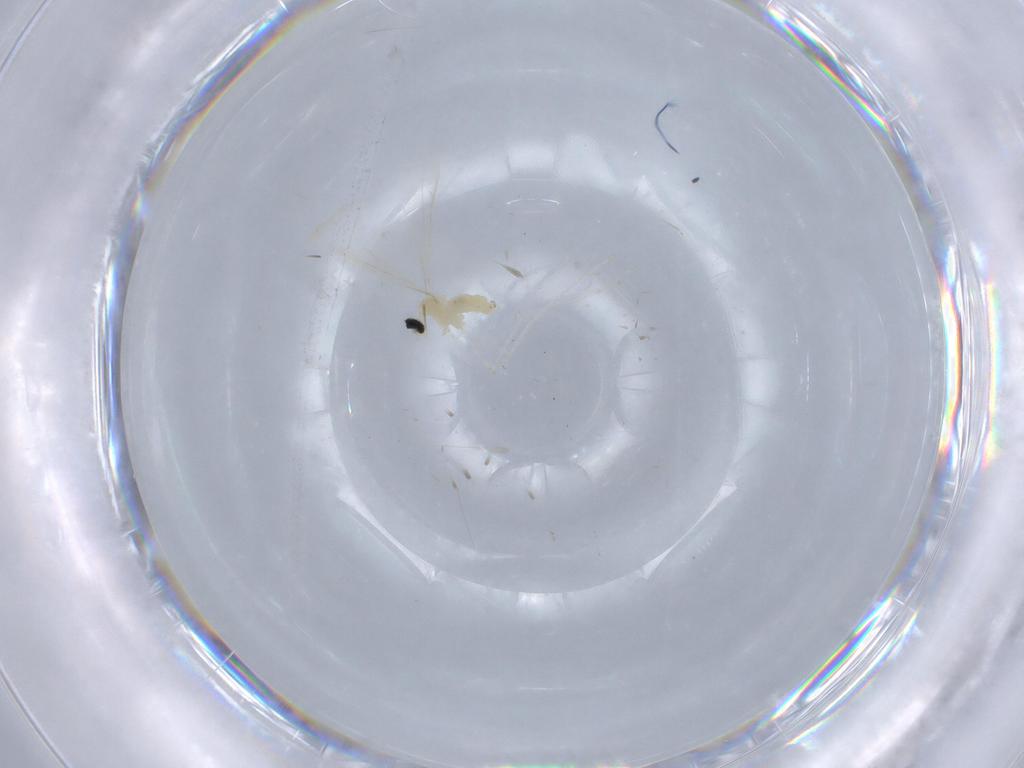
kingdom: Animalia
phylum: Arthropoda
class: Insecta
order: Diptera
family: Cecidomyiidae
